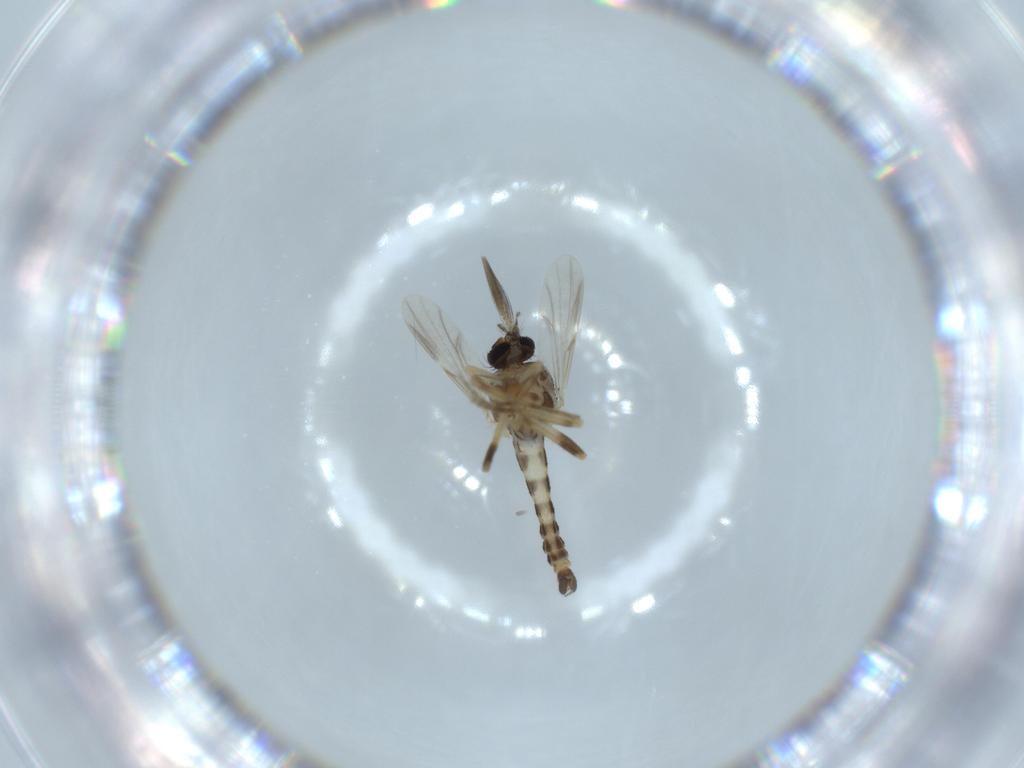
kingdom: Animalia
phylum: Arthropoda
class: Insecta
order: Diptera
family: Ceratopogonidae
